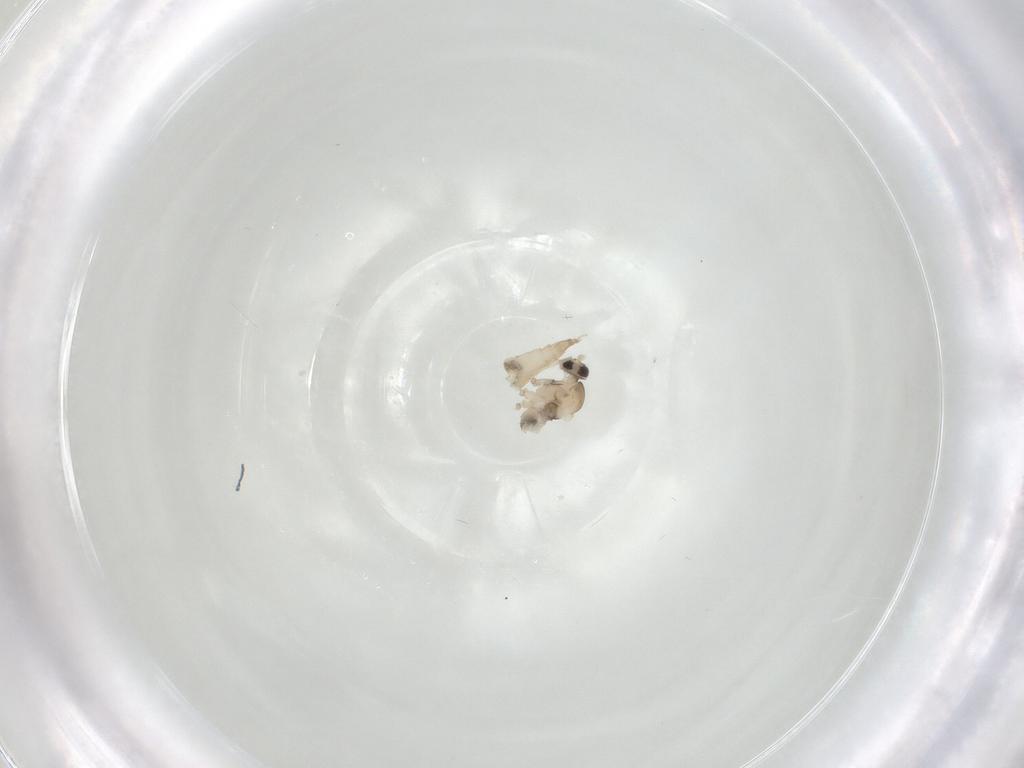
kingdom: Animalia
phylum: Arthropoda
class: Insecta
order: Diptera
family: Cecidomyiidae
